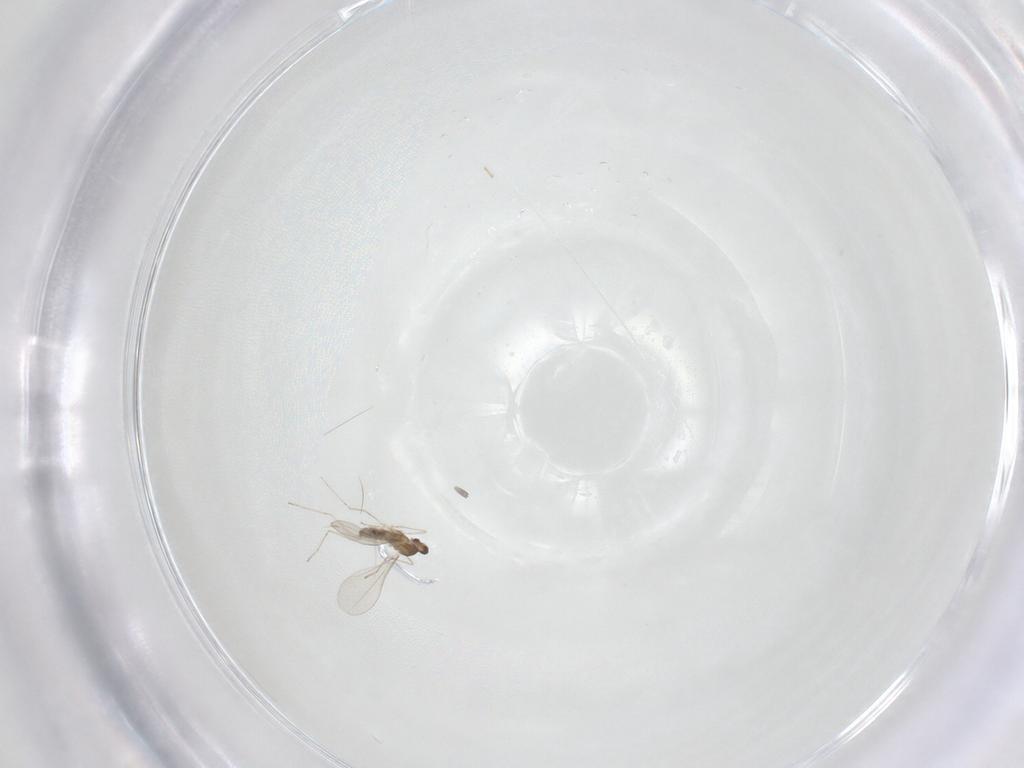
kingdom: Animalia
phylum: Arthropoda
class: Insecta
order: Diptera
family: Cecidomyiidae
